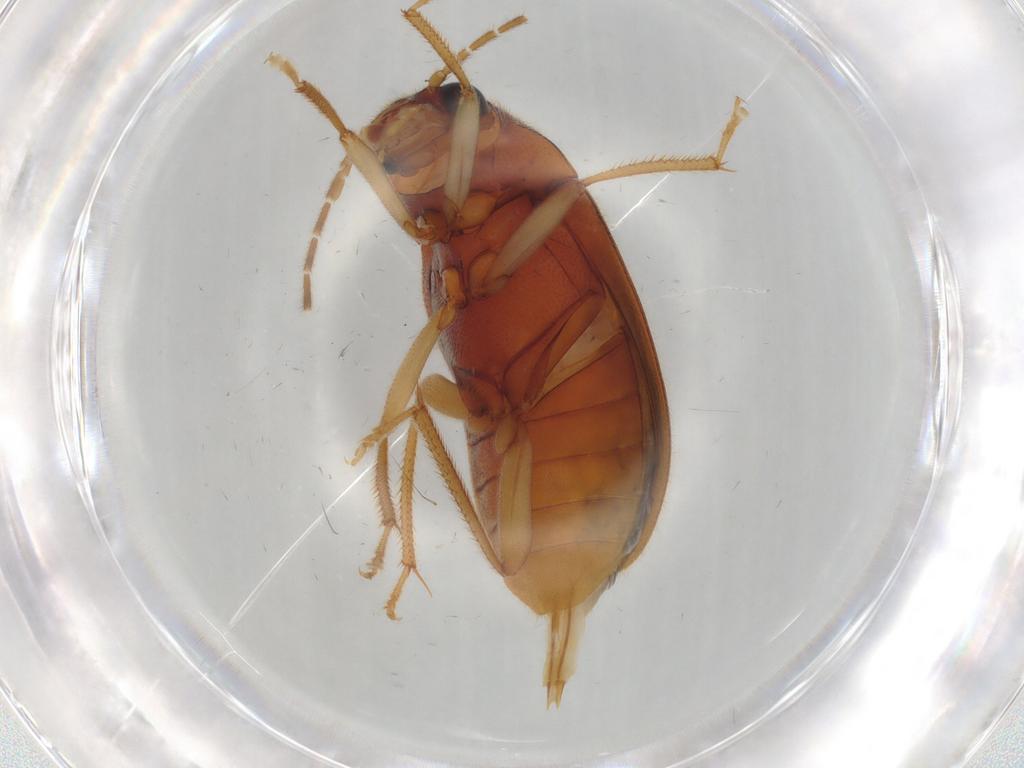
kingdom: Animalia
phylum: Arthropoda
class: Insecta
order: Coleoptera
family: Ptilodactylidae
